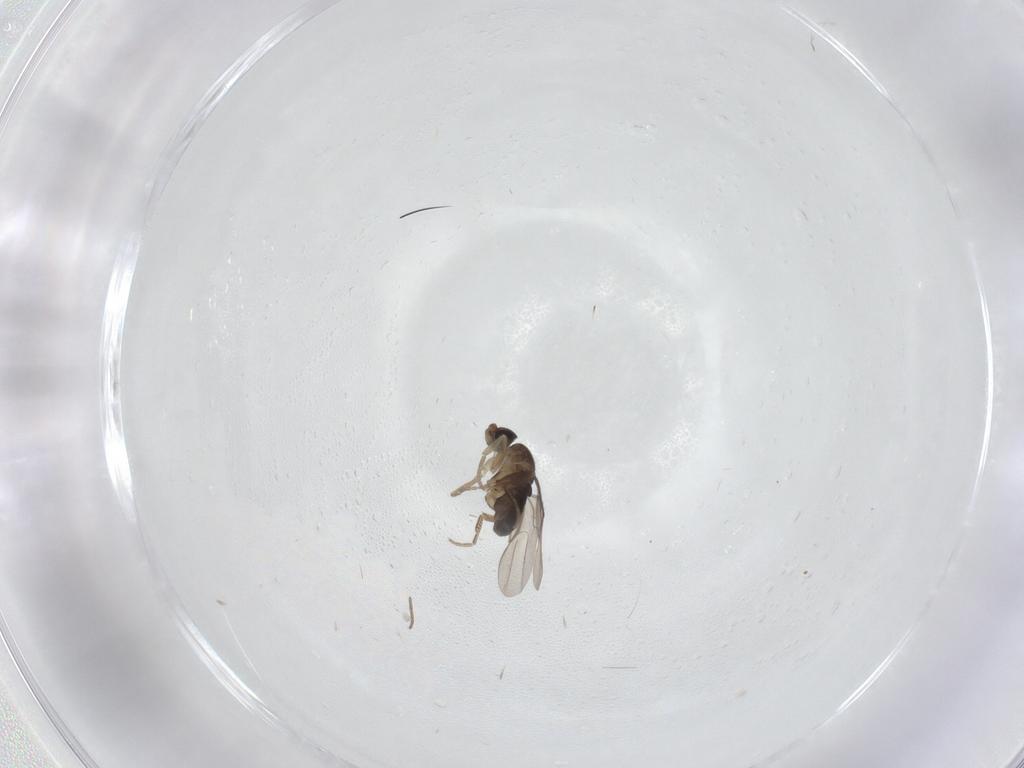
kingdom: Animalia
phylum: Arthropoda
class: Insecta
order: Diptera
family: Phoridae
